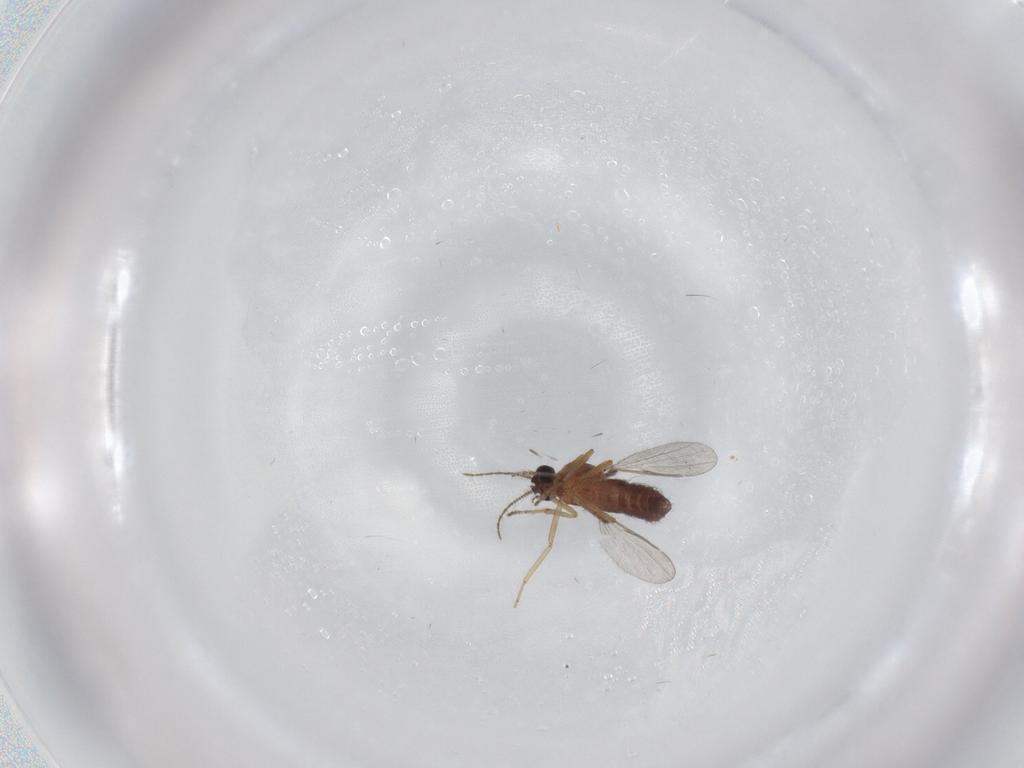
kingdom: Animalia
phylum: Arthropoda
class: Insecta
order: Diptera
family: Ceratopogonidae
